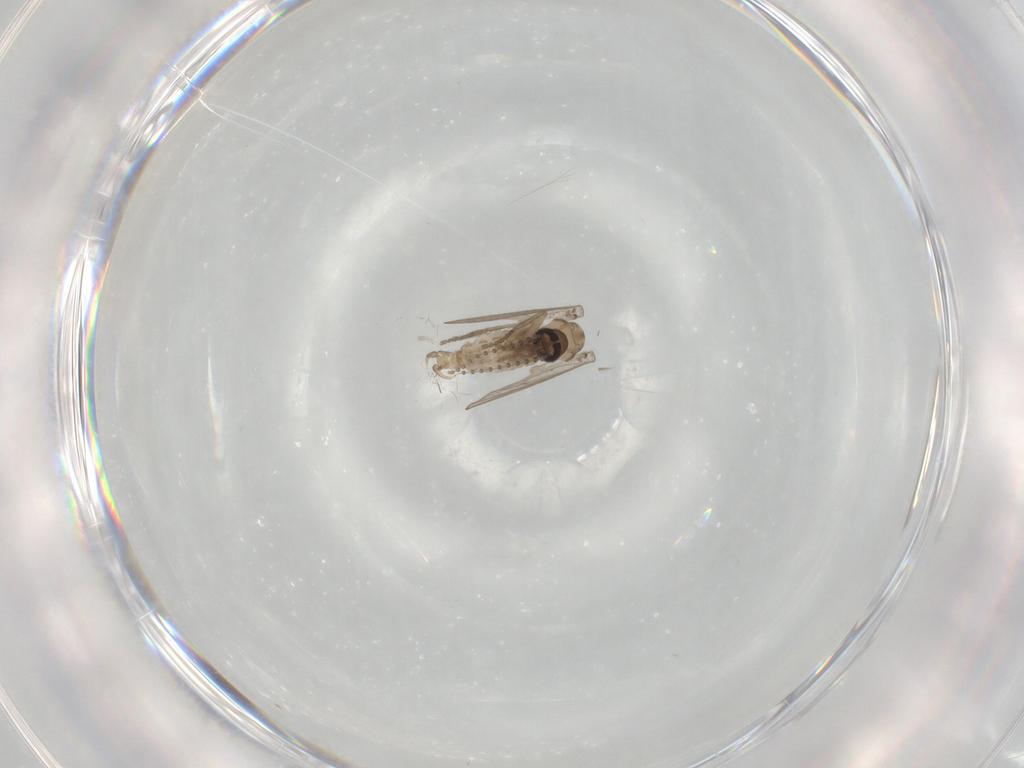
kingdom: Animalia
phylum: Arthropoda
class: Insecta
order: Diptera
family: Psychodidae
